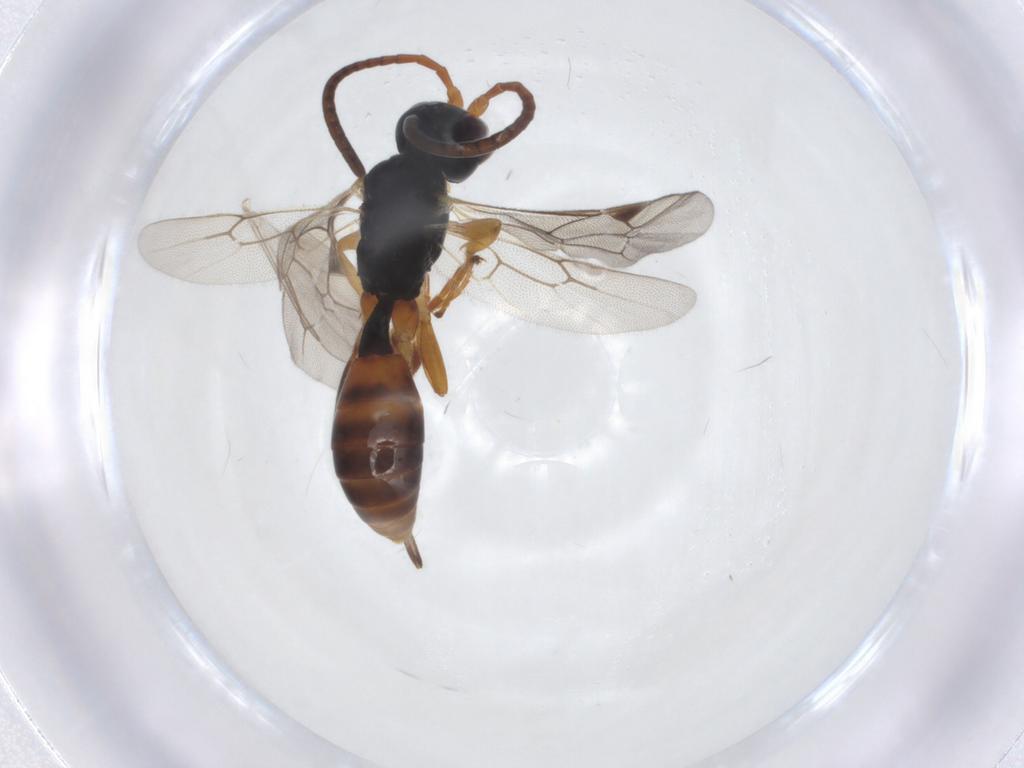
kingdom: Animalia
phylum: Arthropoda
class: Insecta
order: Hymenoptera
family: Ichneumonidae
